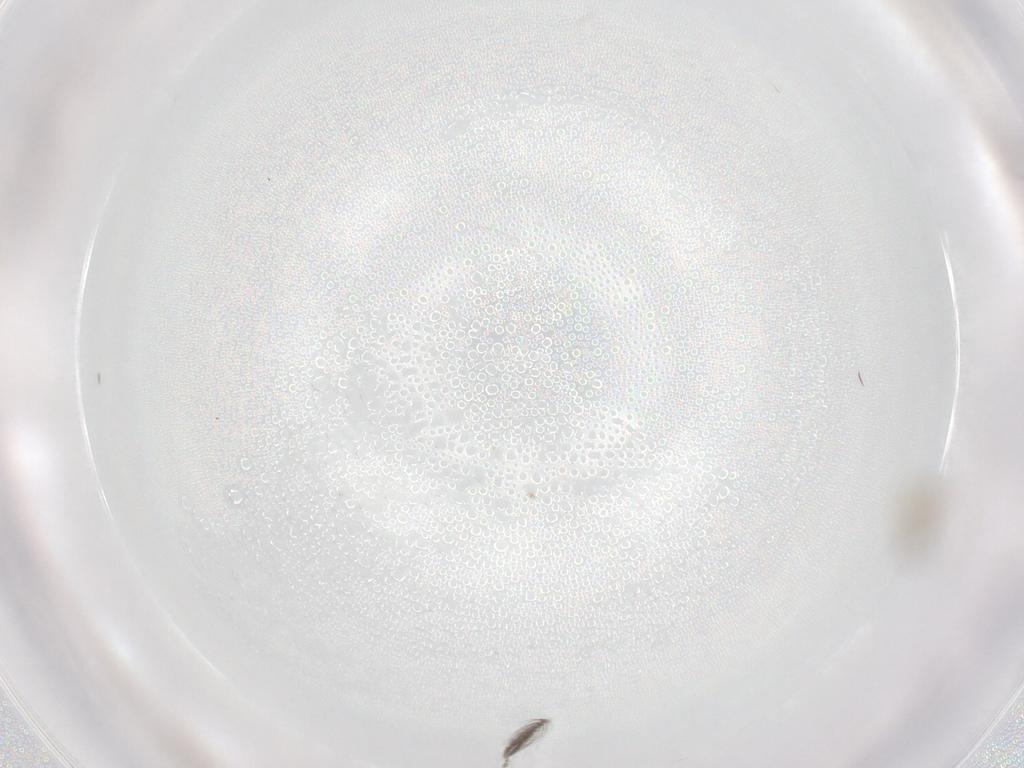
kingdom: Animalia
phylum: Arthropoda
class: Insecta
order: Diptera
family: Ceratopogonidae
